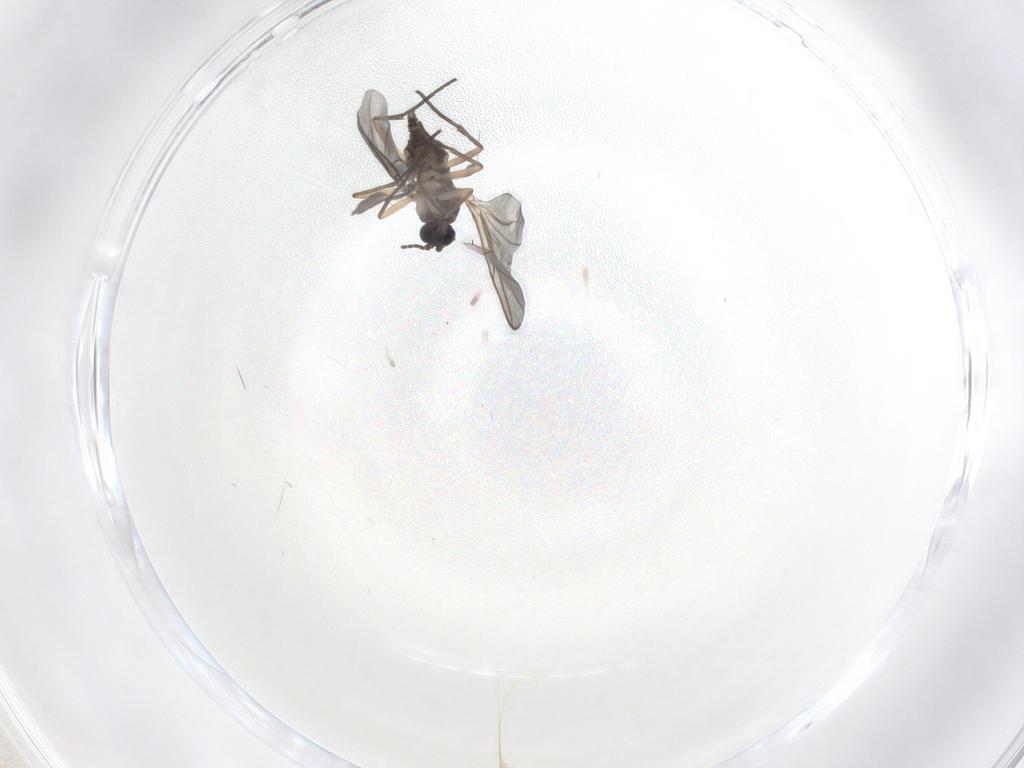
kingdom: Animalia
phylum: Arthropoda
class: Insecta
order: Diptera
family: Sciaridae
